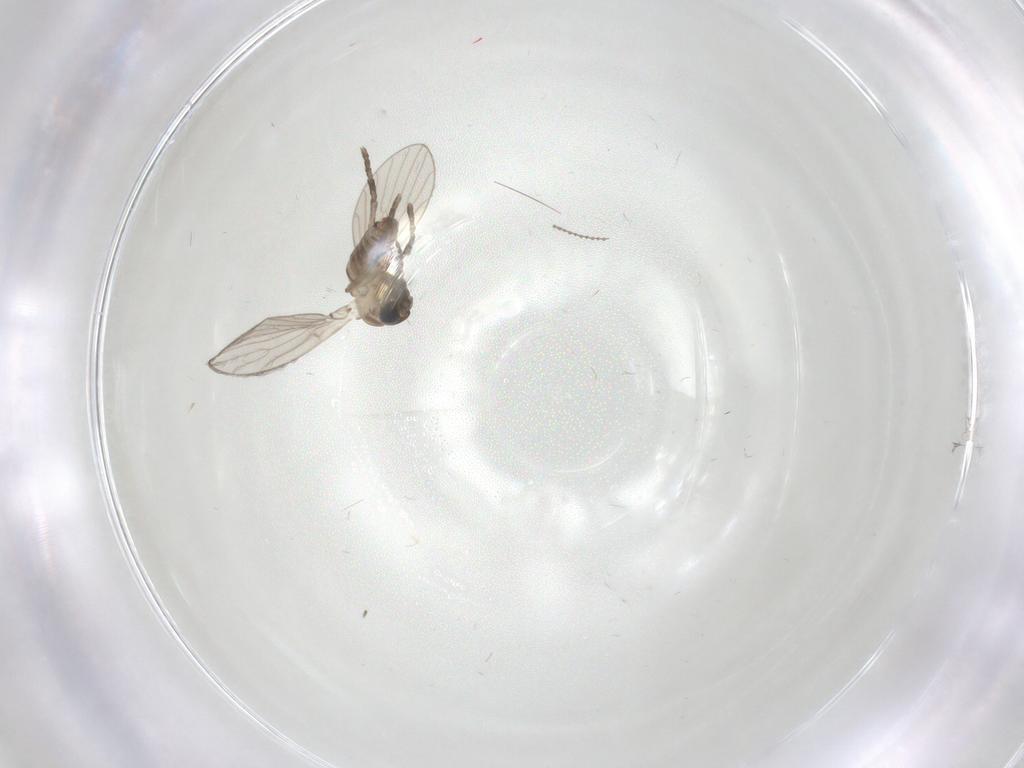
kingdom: Animalia
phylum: Arthropoda
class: Insecta
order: Diptera
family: Cecidomyiidae
